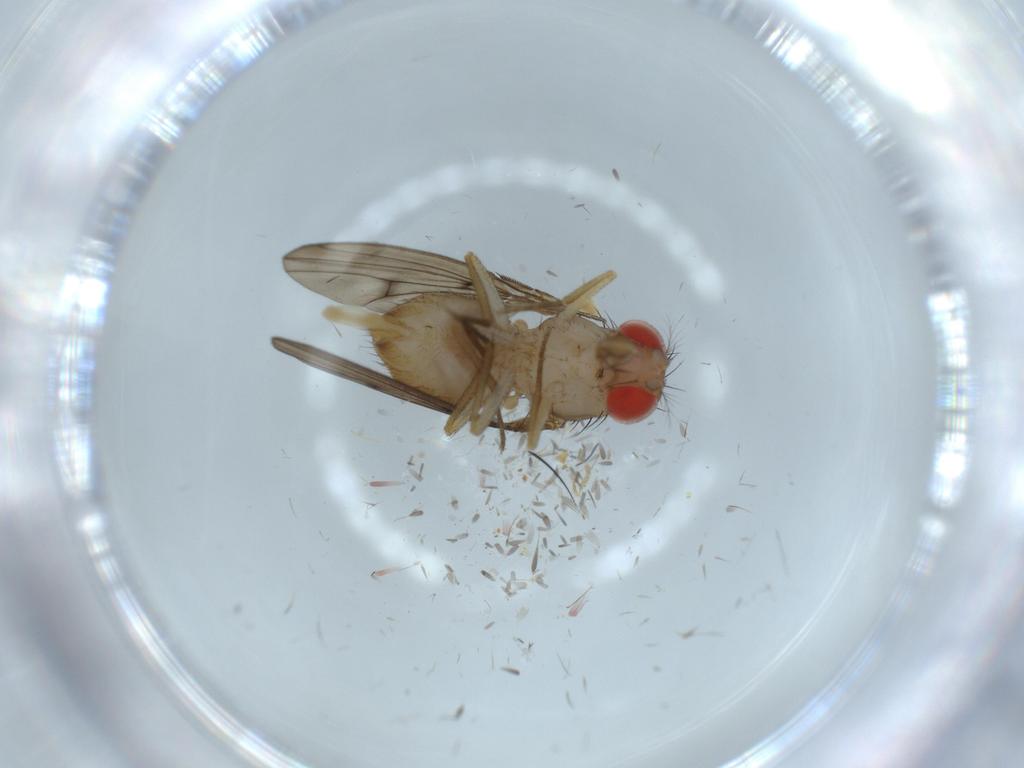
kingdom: Animalia
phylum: Arthropoda
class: Insecta
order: Diptera
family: Drosophilidae
